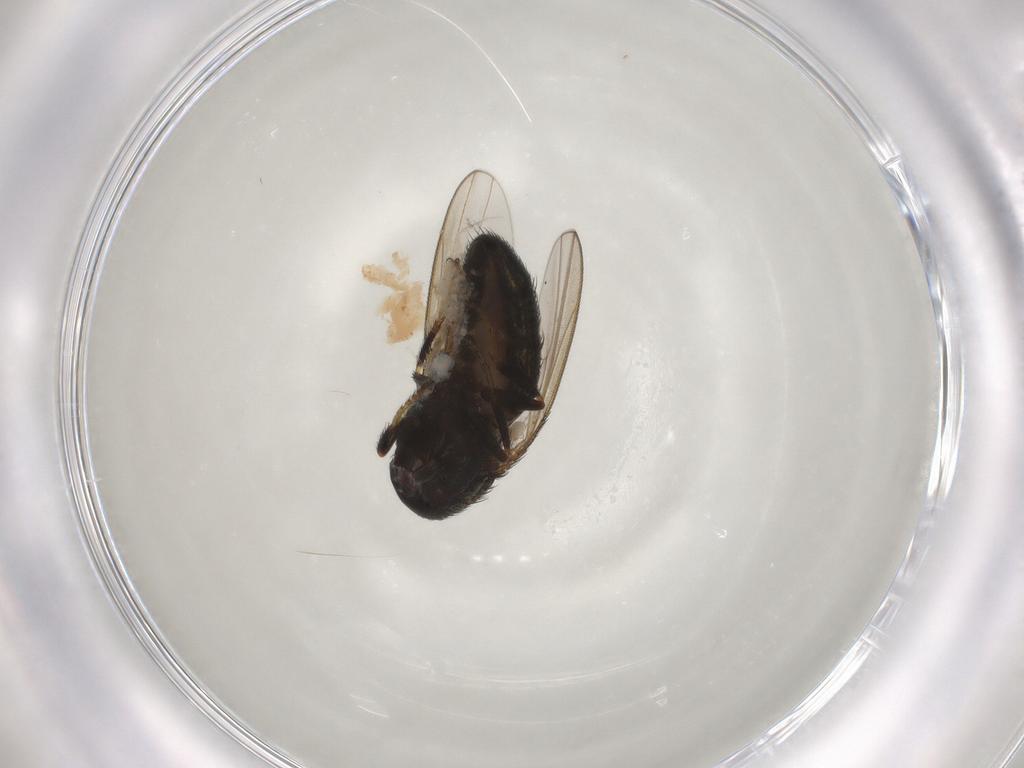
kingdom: Animalia
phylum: Arthropoda
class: Insecta
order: Diptera
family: Ephydridae
